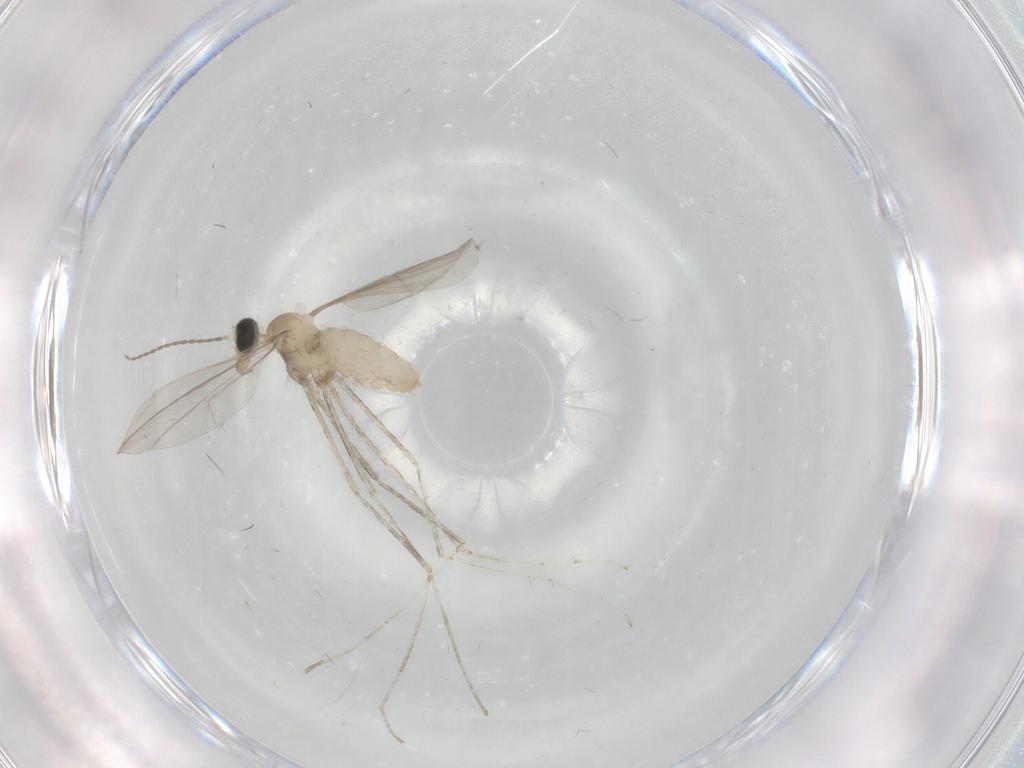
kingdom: Animalia
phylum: Arthropoda
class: Insecta
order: Diptera
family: Cecidomyiidae
